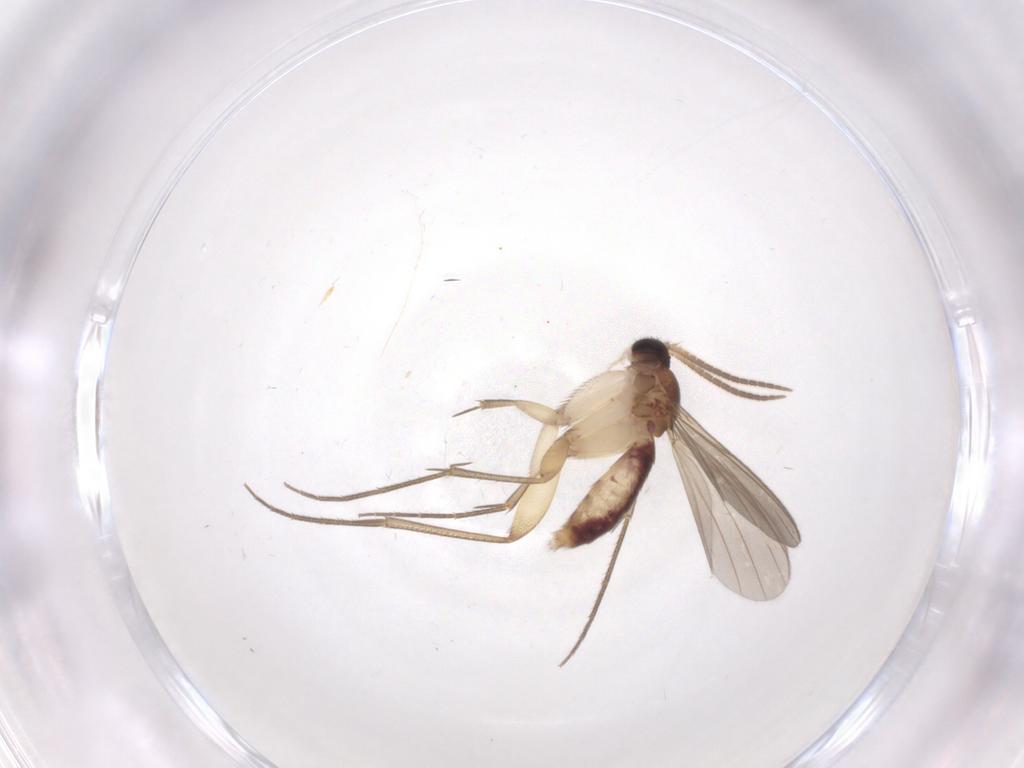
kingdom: Animalia
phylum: Arthropoda
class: Insecta
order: Diptera
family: Mycetophilidae
